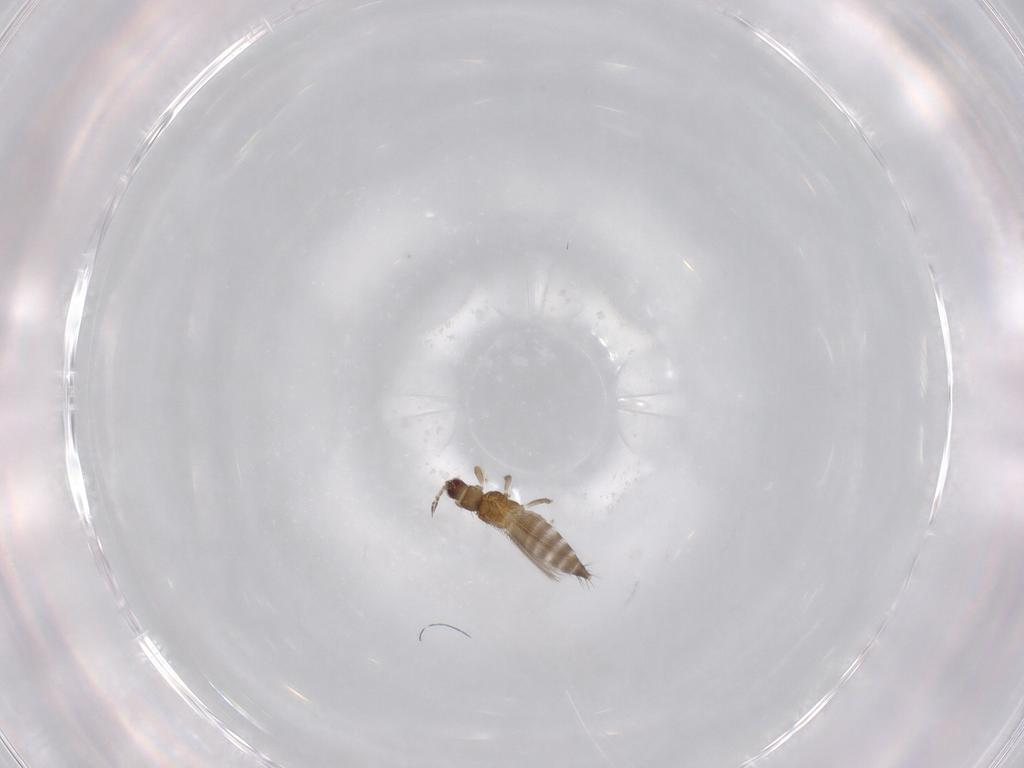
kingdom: Animalia
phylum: Arthropoda
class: Insecta
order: Thysanoptera
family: Thripidae
